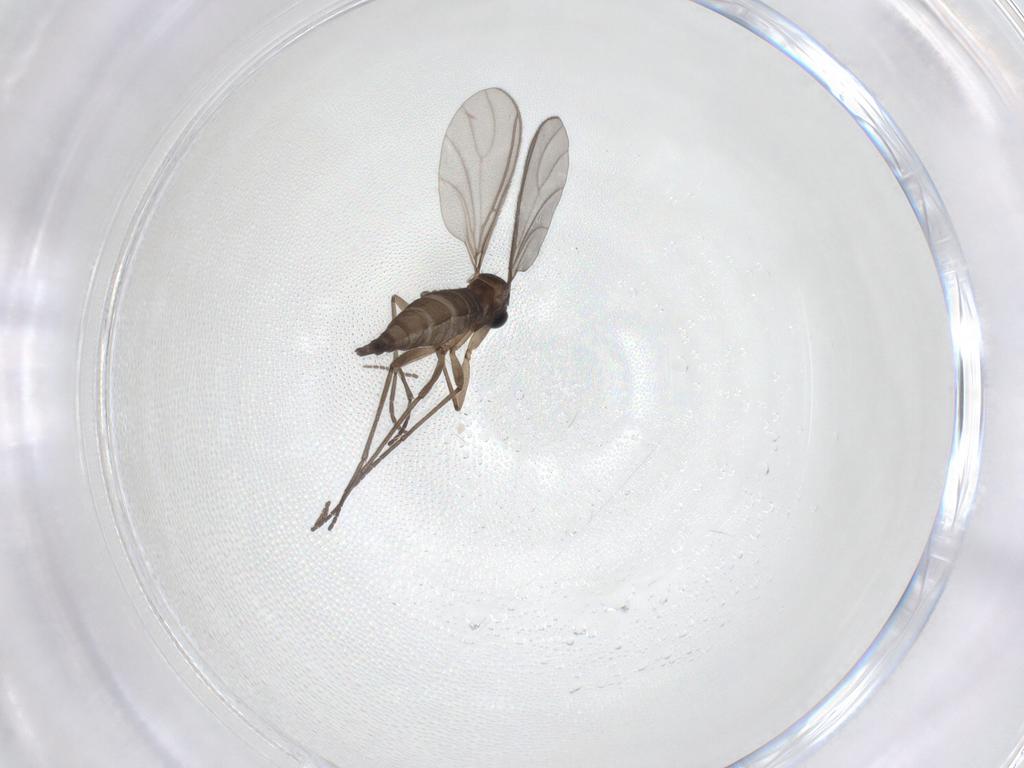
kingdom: Animalia
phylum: Arthropoda
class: Insecta
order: Diptera
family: Sciaridae
